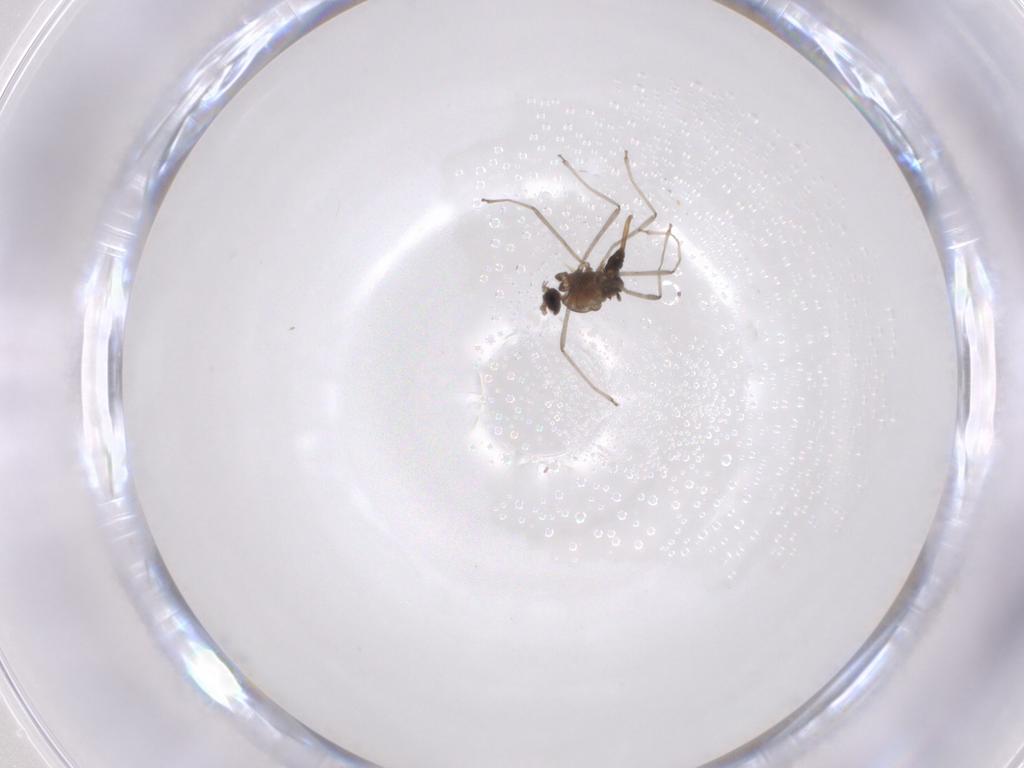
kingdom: Animalia
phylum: Arthropoda
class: Insecta
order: Diptera
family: Cecidomyiidae
